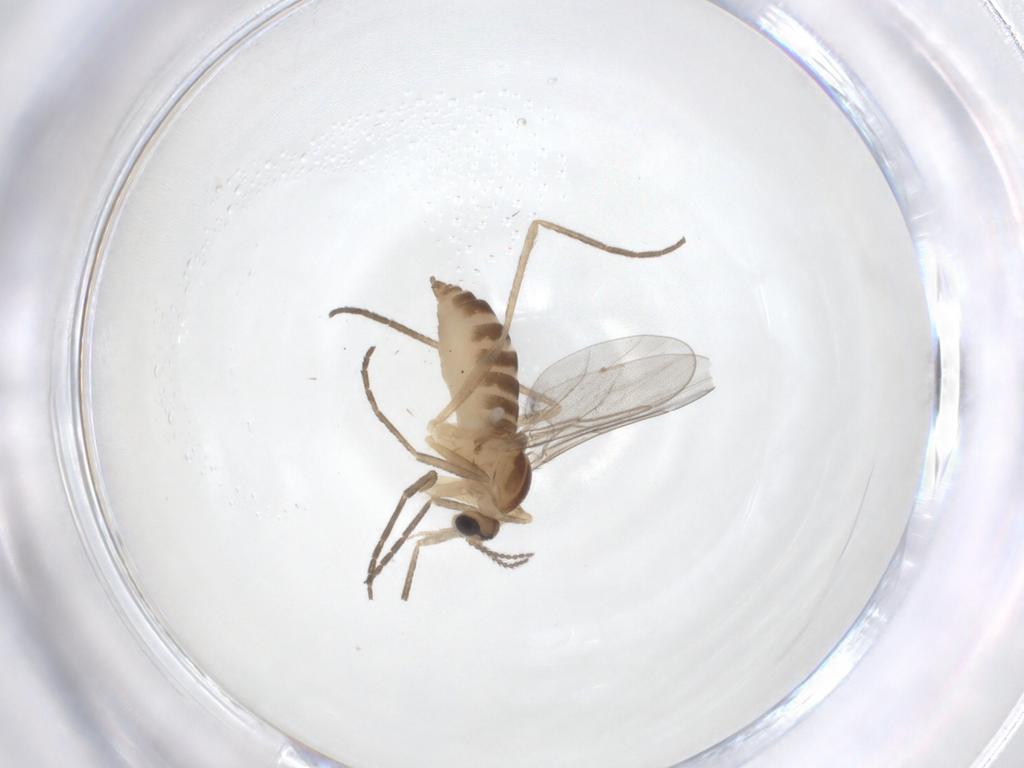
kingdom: Animalia
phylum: Arthropoda
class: Insecta
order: Diptera
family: Cecidomyiidae
